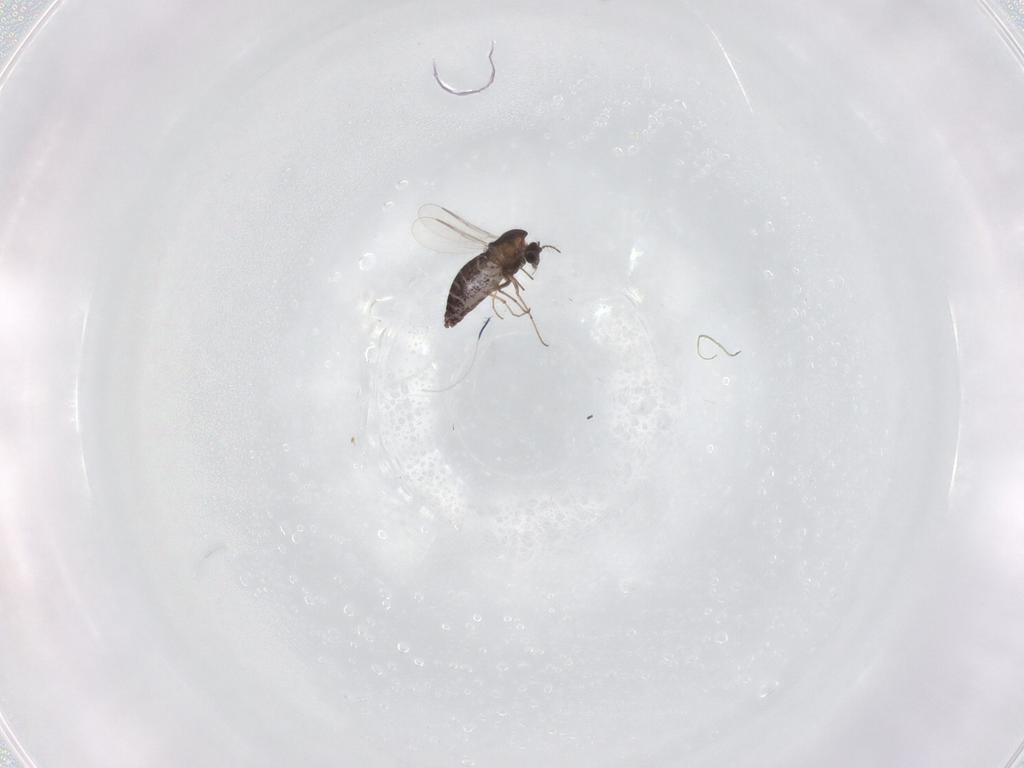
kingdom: Animalia
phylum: Arthropoda
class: Insecta
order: Diptera
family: Chironomidae
